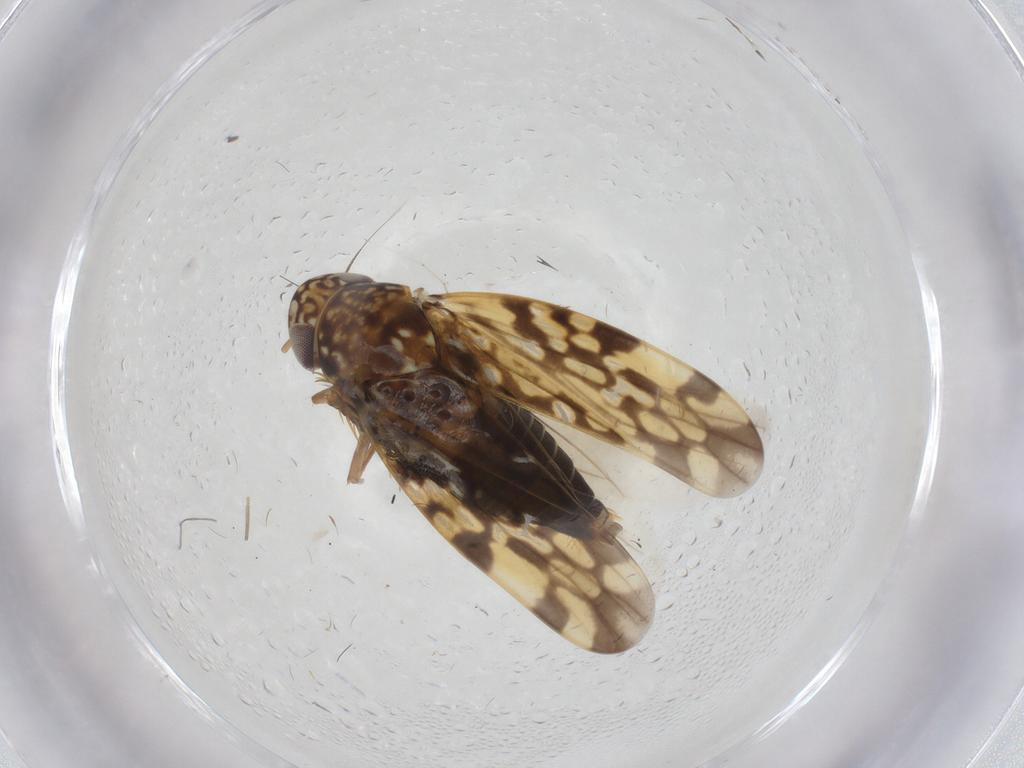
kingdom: Animalia
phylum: Arthropoda
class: Insecta
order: Hemiptera
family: Cicadellidae
